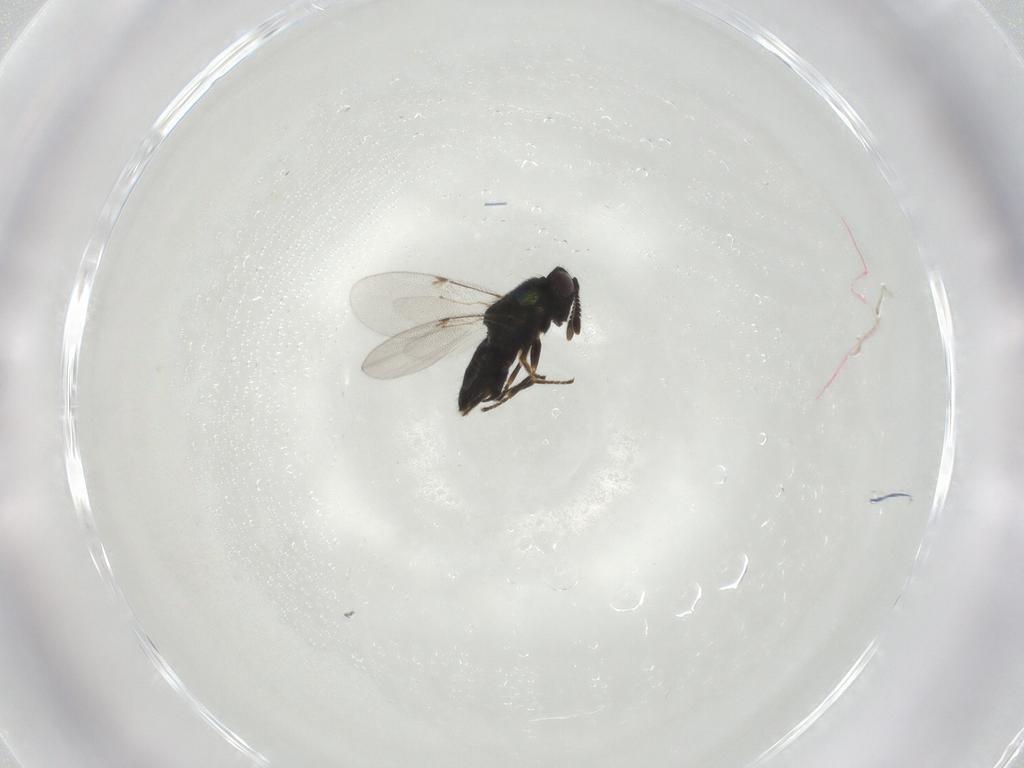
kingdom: Animalia
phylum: Arthropoda
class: Insecta
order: Hymenoptera
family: Encyrtidae
